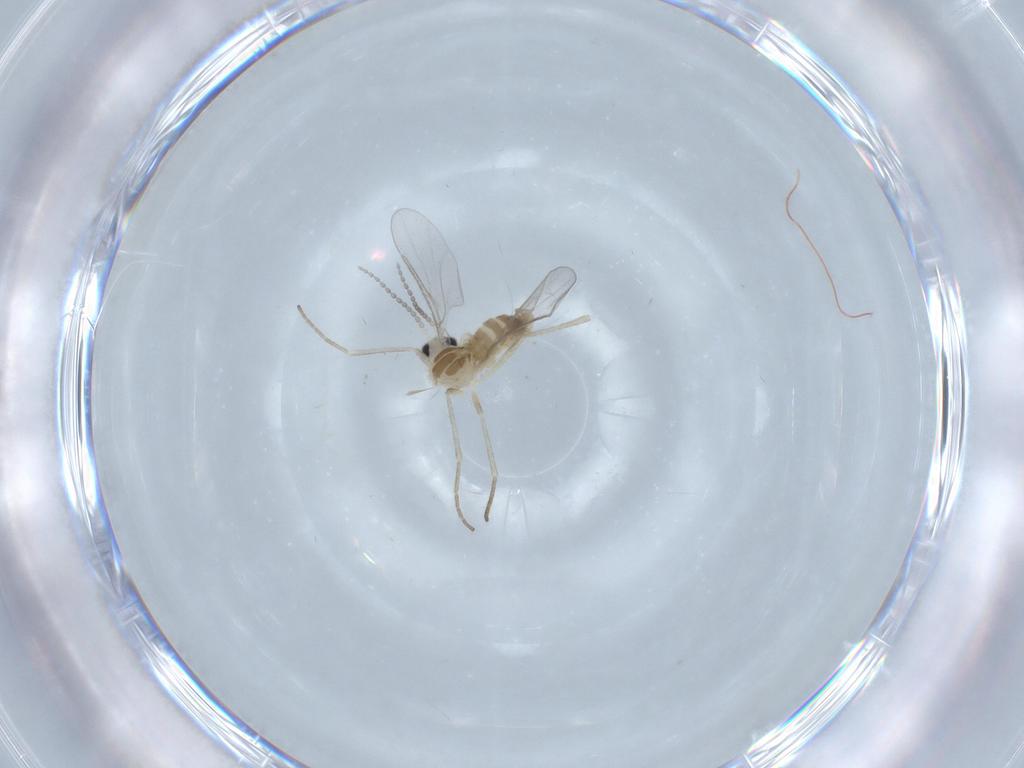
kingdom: Animalia
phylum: Arthropoda
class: Insecta
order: Diptera
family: Cecidomyiidae
